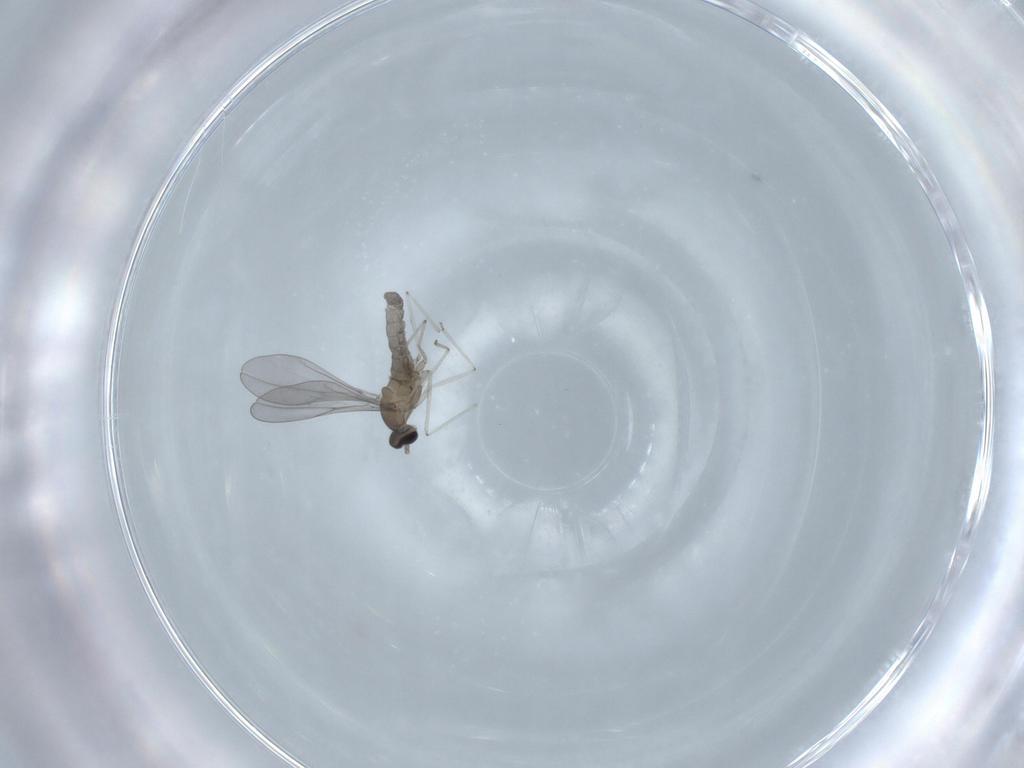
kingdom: Animalia
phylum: Arthropoda
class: Insecta
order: Diptera
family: Cecidomyiidae
